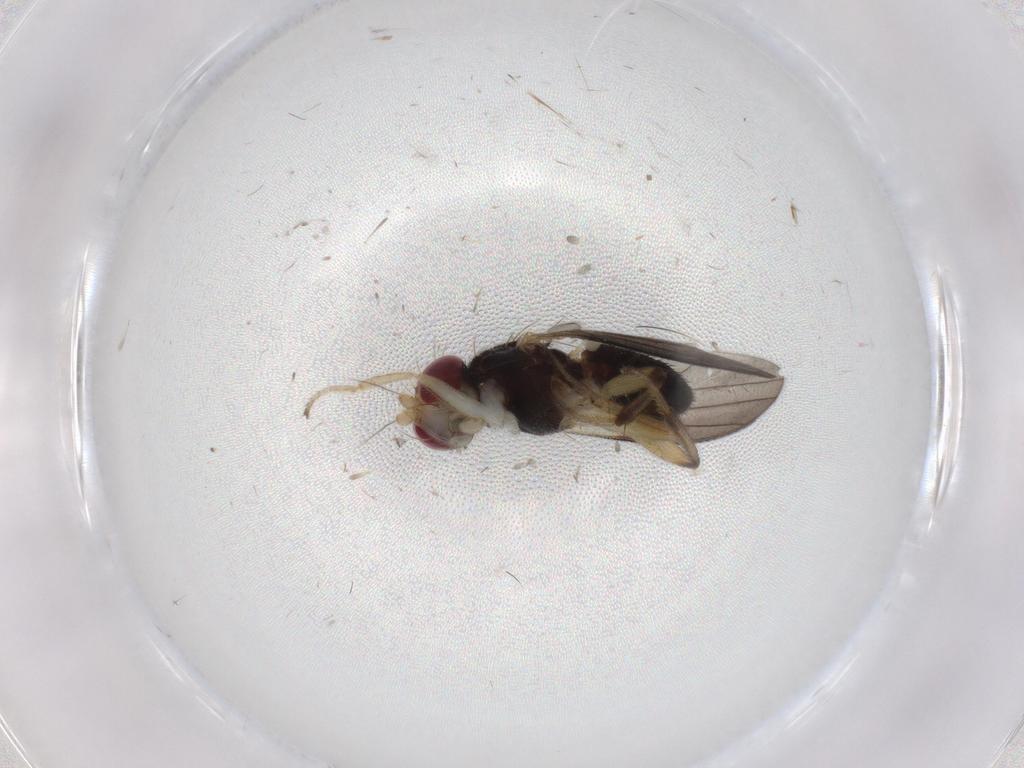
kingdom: Animalia
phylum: Arthropoda
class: Insecta
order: Diptera
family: Clusiidae
